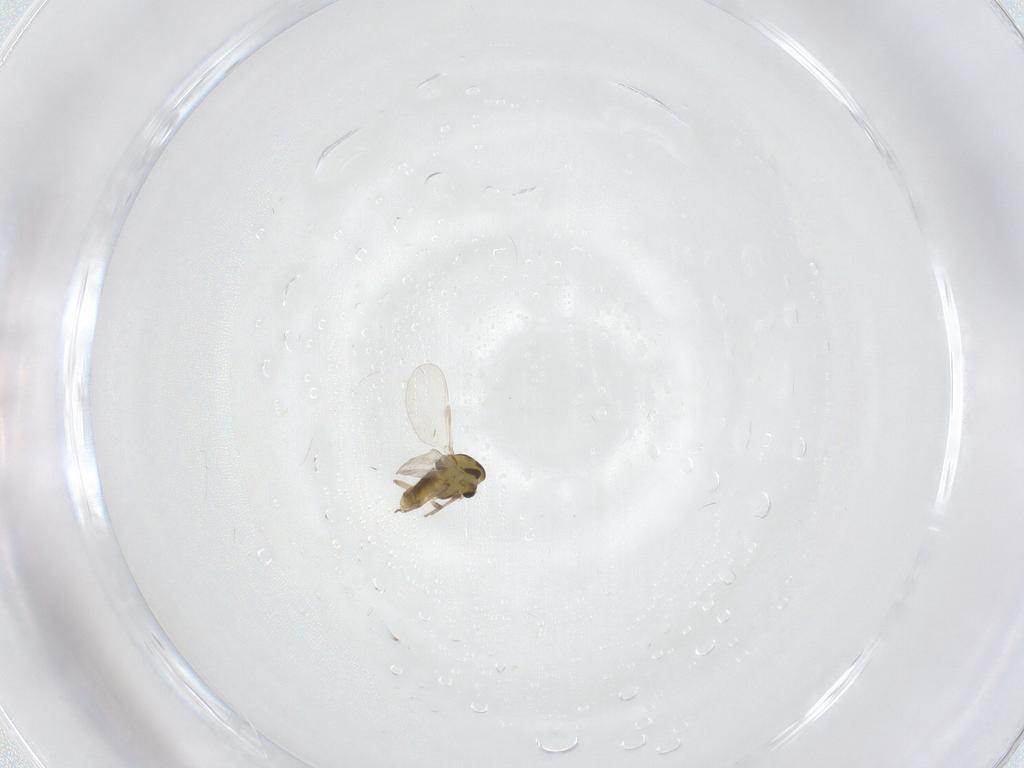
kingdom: Animalia
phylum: Arthropoda
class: Insecta
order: Diptera
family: Chironomidae
